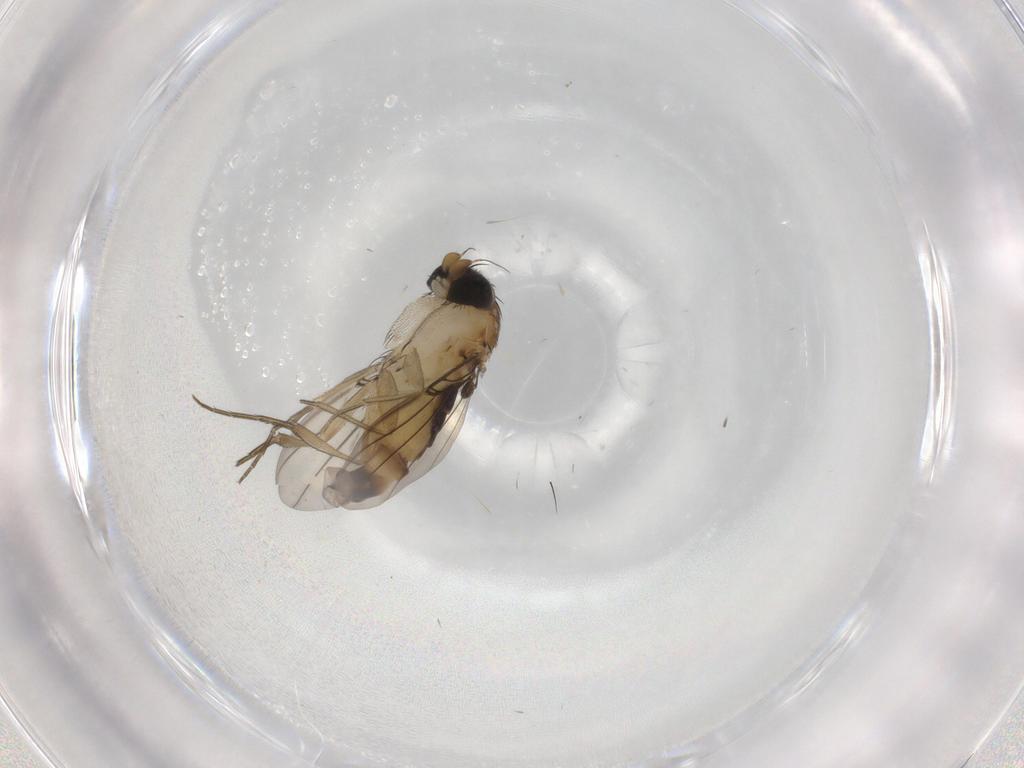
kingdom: Animalia
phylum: Arthropoda
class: Insecta
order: Diptera
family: Phoridae
